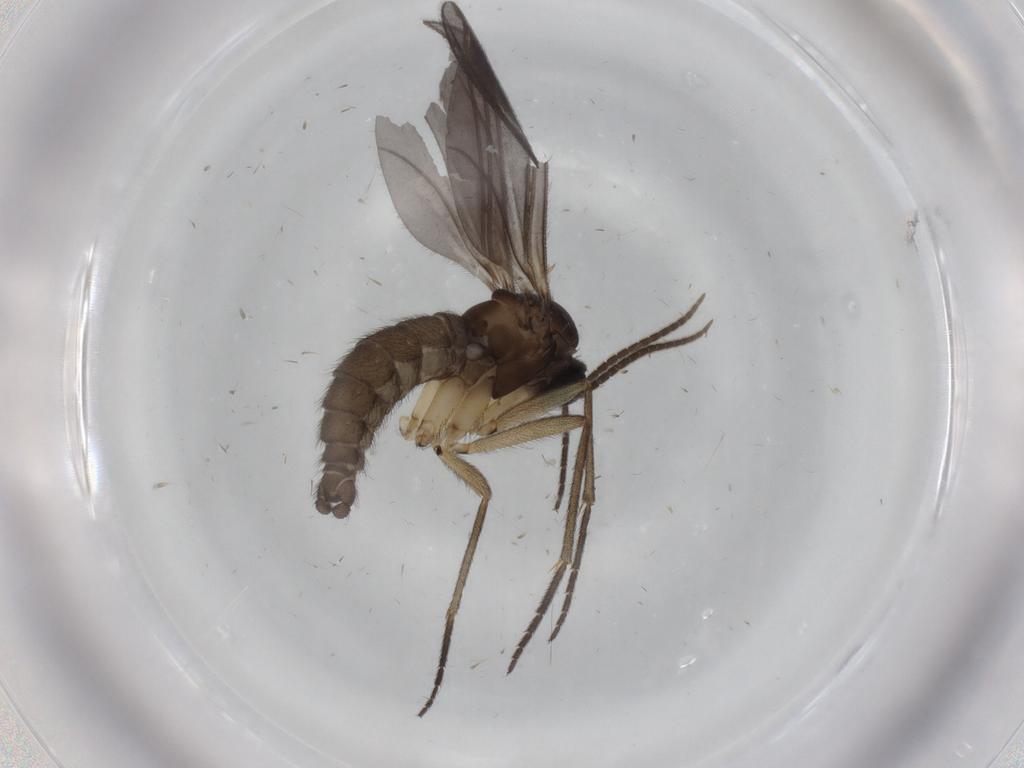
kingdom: Animalia
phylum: Arthropoda
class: Insecta
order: Diptera
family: Sciaridae
